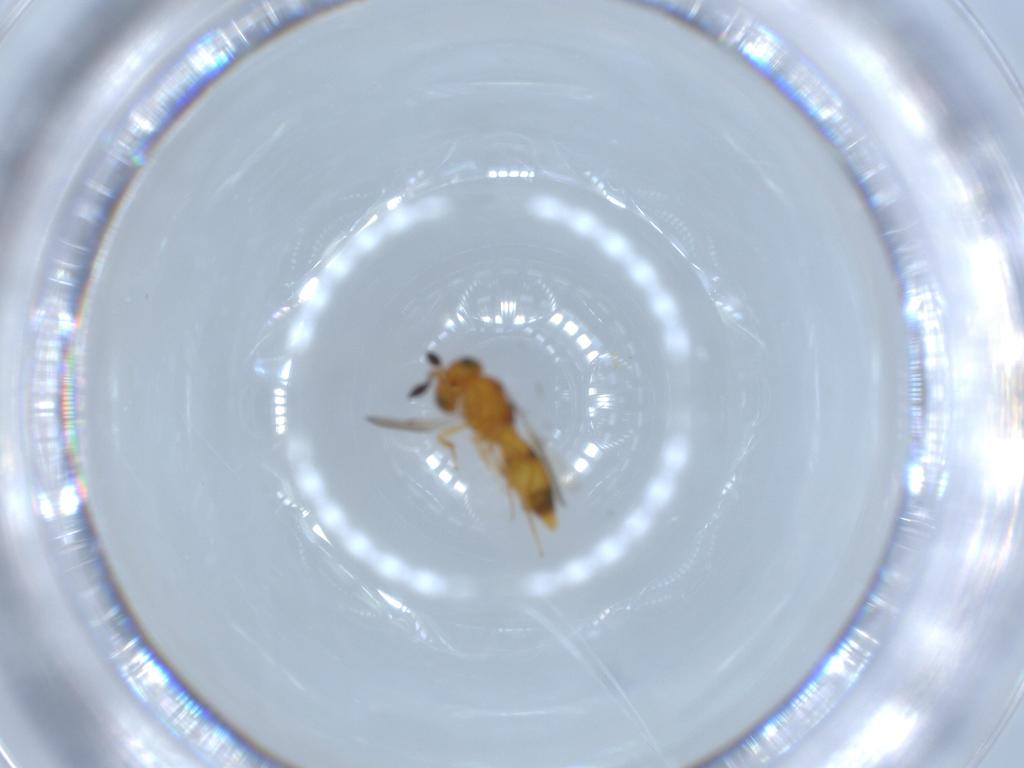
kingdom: Animalia
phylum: Arthropoda
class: Insecta
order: Hymenoptera
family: Scelionidae
